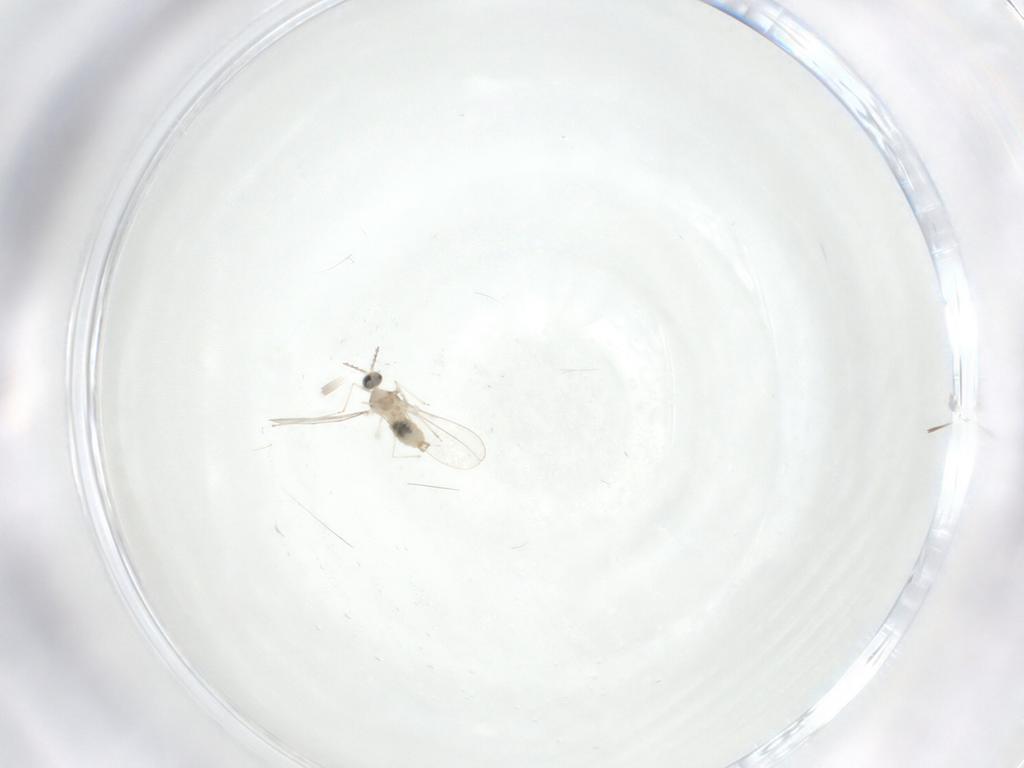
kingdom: Animalia
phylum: Arthropoda
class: Insecta
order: Diptera
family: Cecidomyiidae
